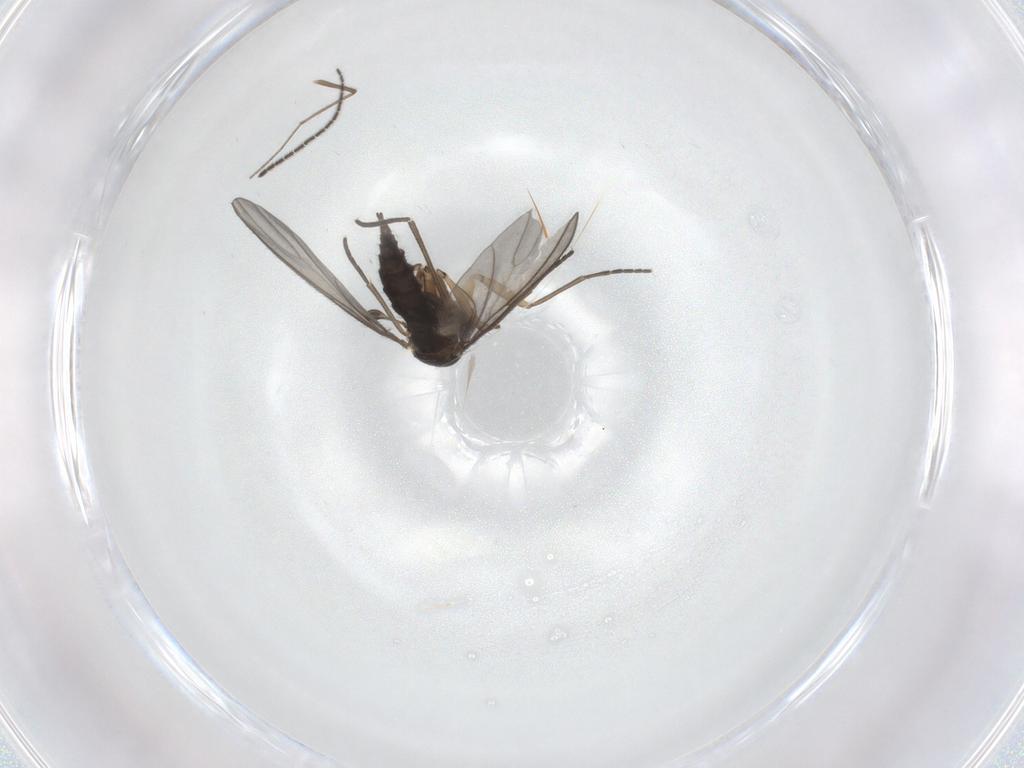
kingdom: Animalia
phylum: Arthropoda
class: Insecta
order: Diptera
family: Chironomidae
